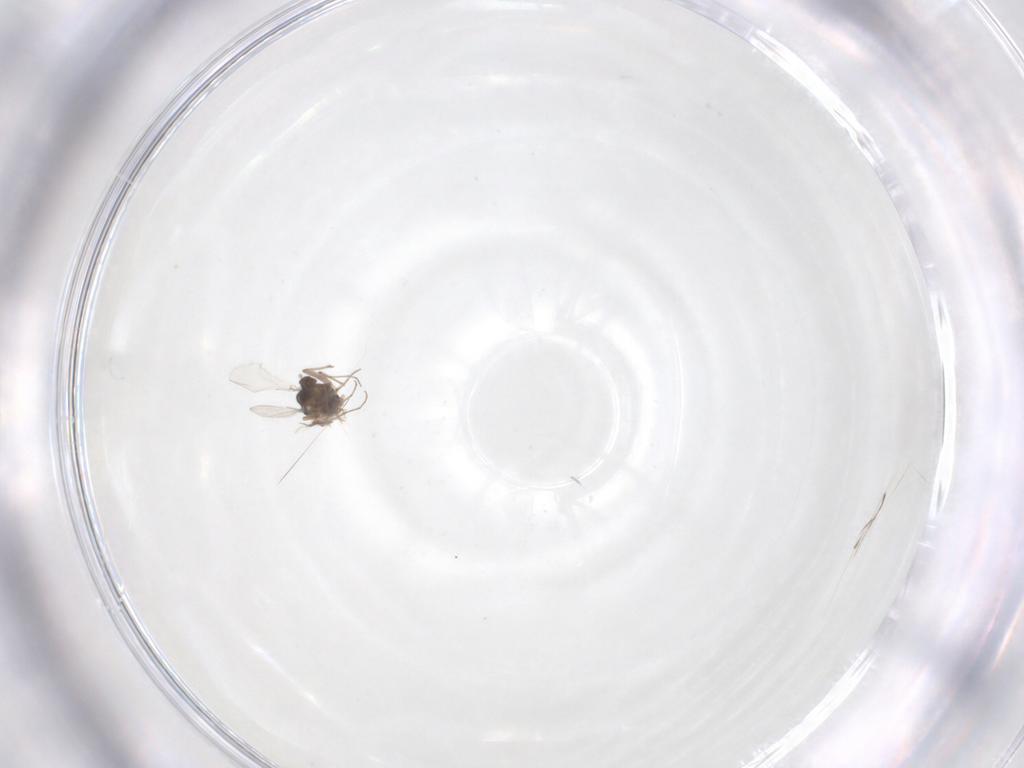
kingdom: Animalia
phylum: Arthropoda
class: Insecta
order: Diptera
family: Chironomidae
